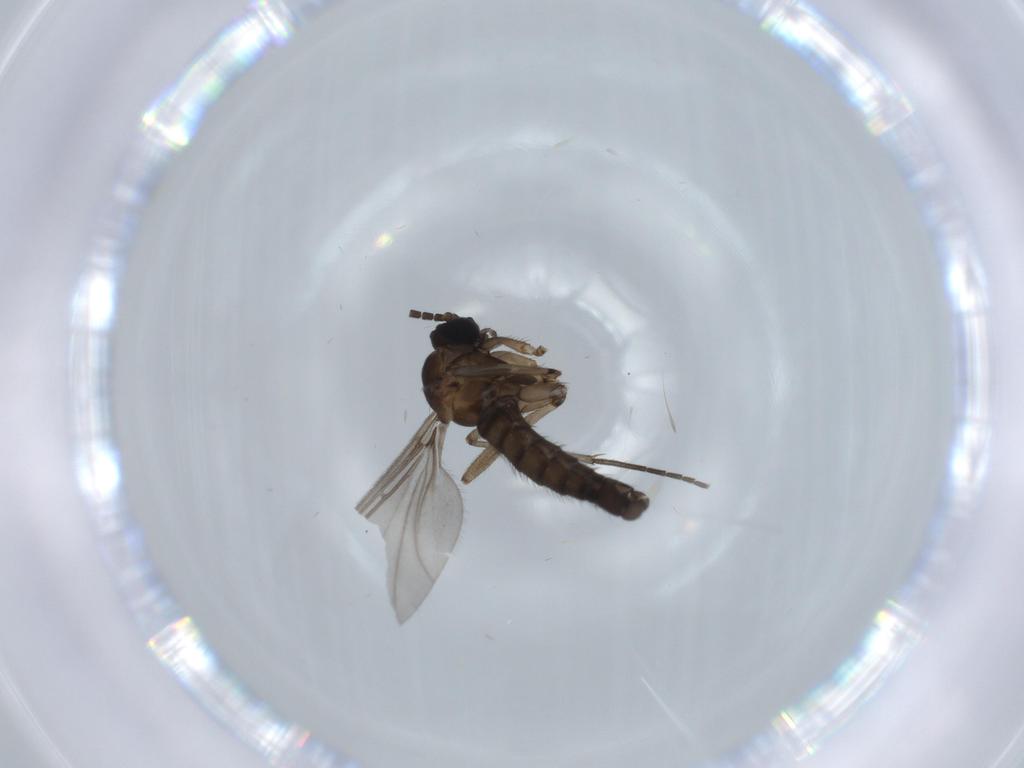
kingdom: Animalia
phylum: Arthropoda
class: Insecta
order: Diptera
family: Sciaridae
